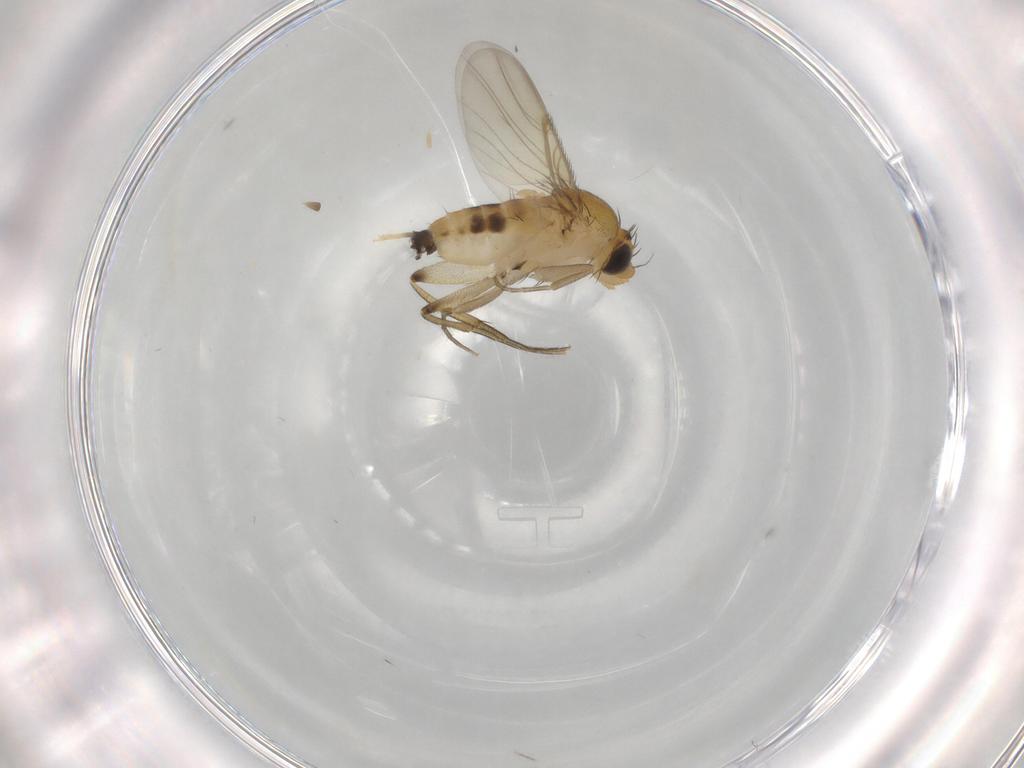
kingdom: Animalia
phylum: Arthropoda
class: Insecta
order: Diptera
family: Phoridae
